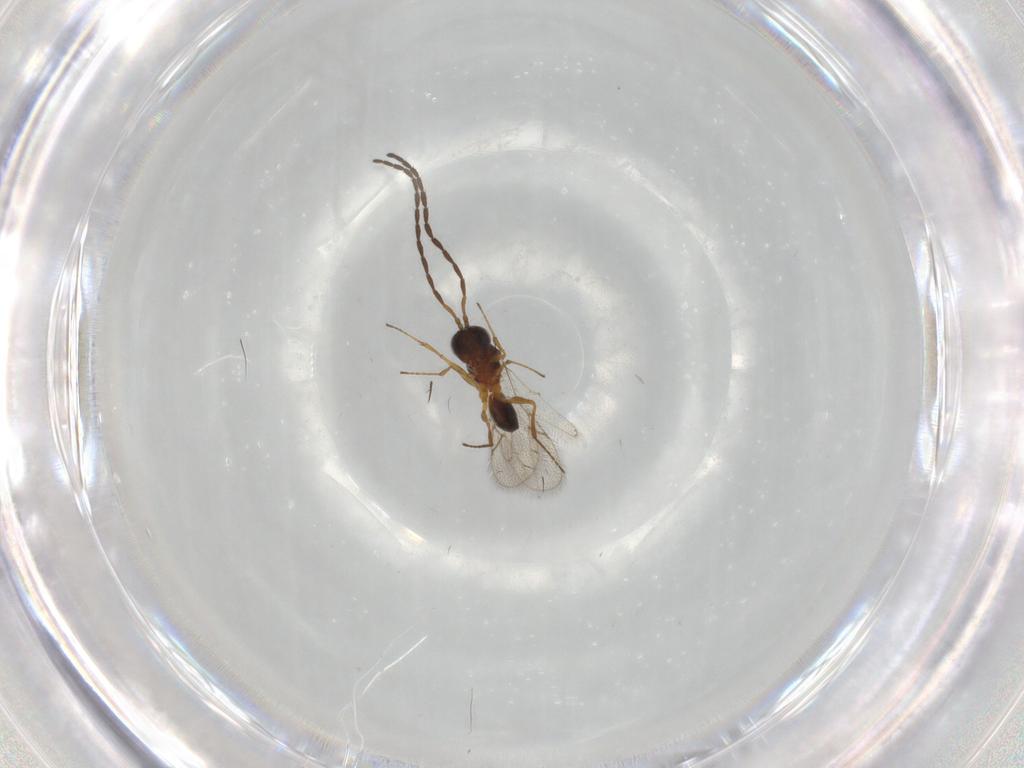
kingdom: Animalia
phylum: Arthropoda
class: Insecta
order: Hymenoptera
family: Figitidae
